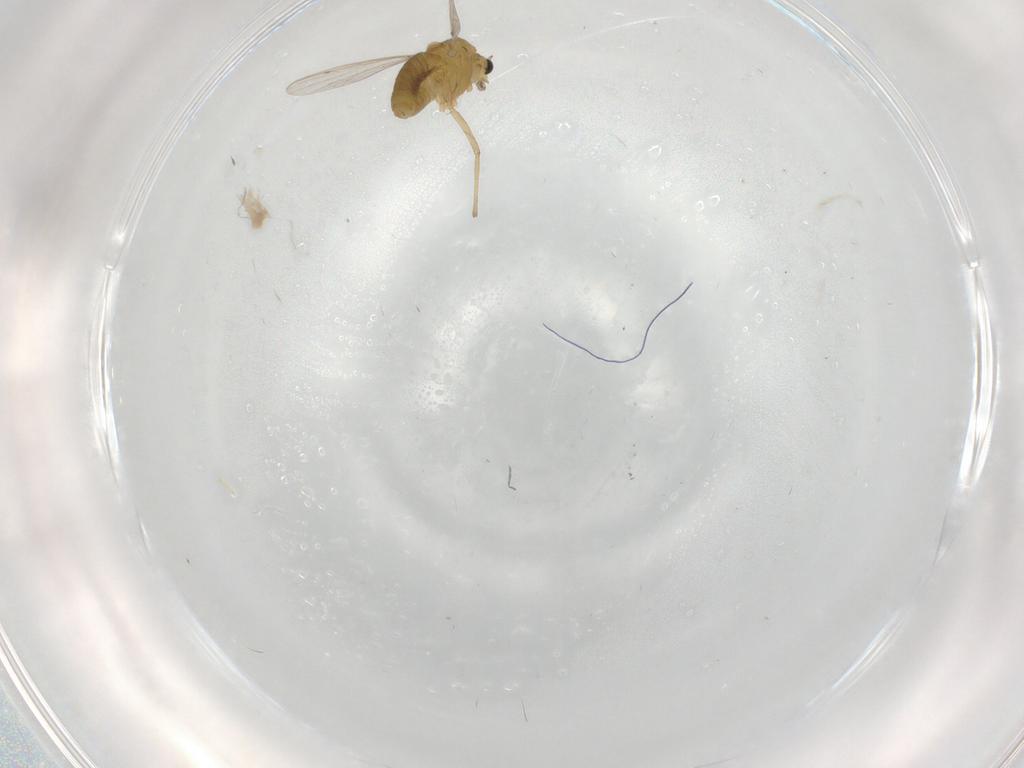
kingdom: Animalia
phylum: Arthropoda
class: Insecta
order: Diptera
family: Chironomidae
